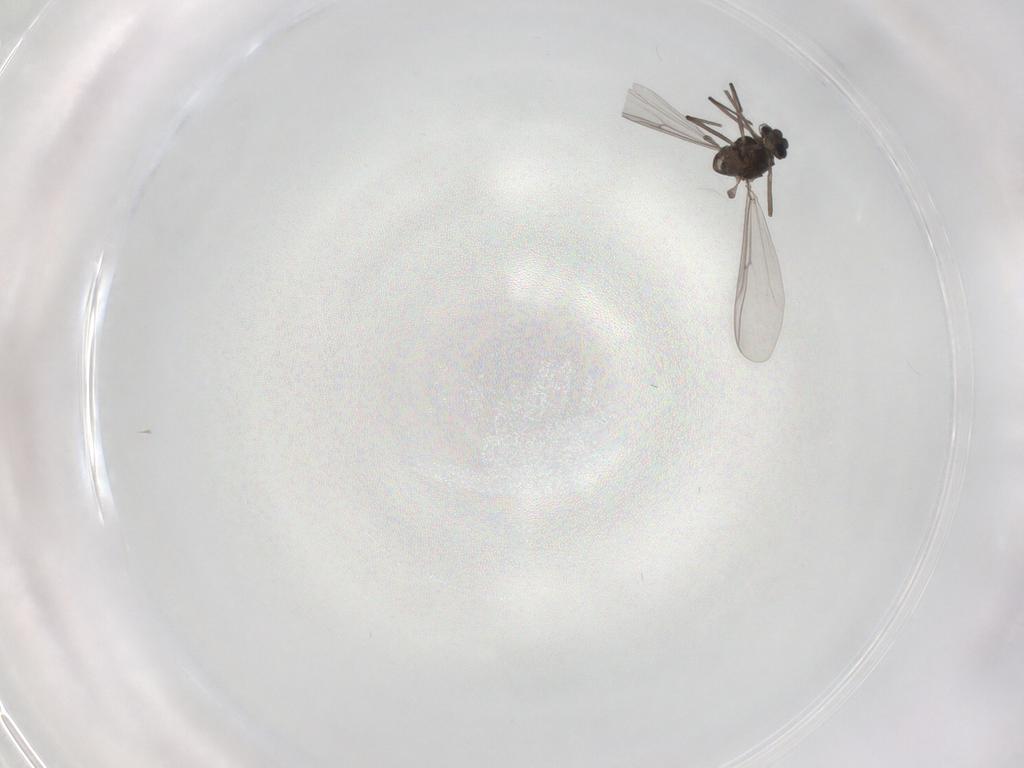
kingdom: Animalia
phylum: Arthropoda
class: Insecta
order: Diptera
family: Chironomidae
